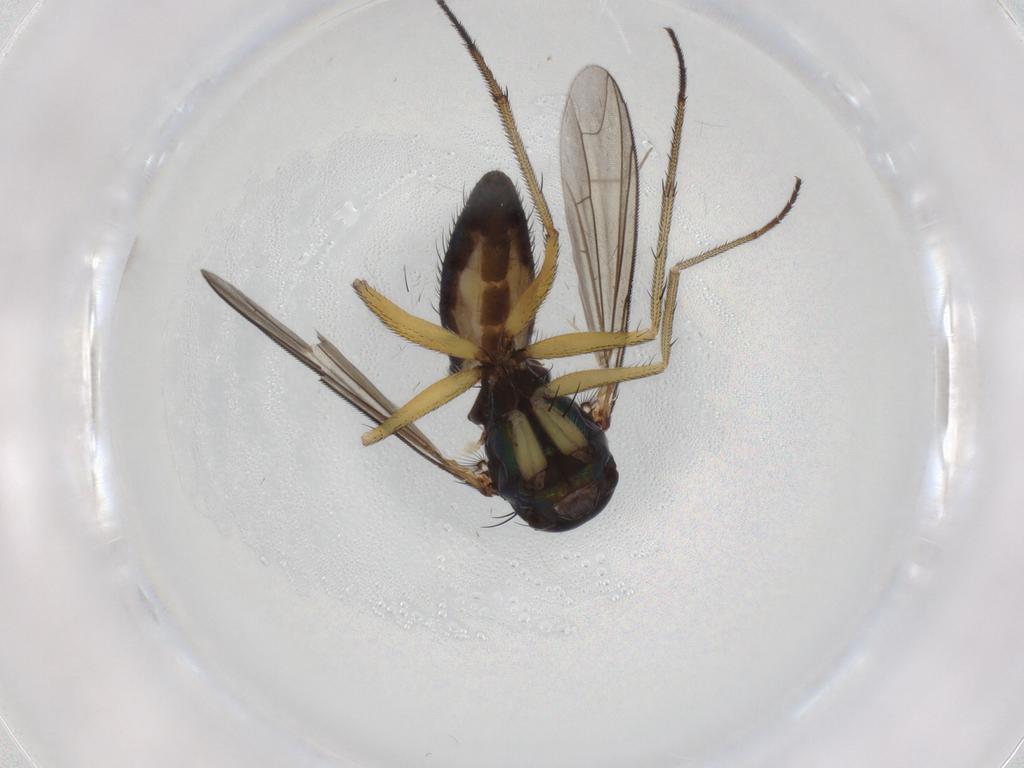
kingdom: Animalia
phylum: Arthropoda
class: Insecta
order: Diptera
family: Dolichopodidae
